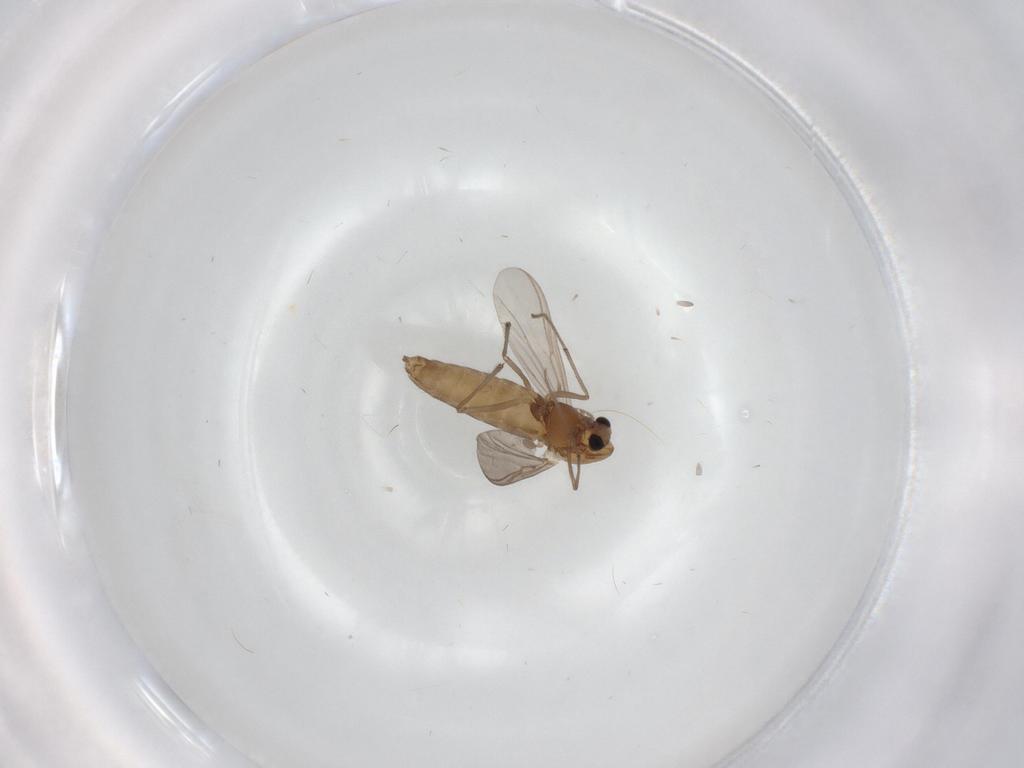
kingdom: Animalia
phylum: Arthropoda
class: Insecta
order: Diptera
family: Chironomidae
